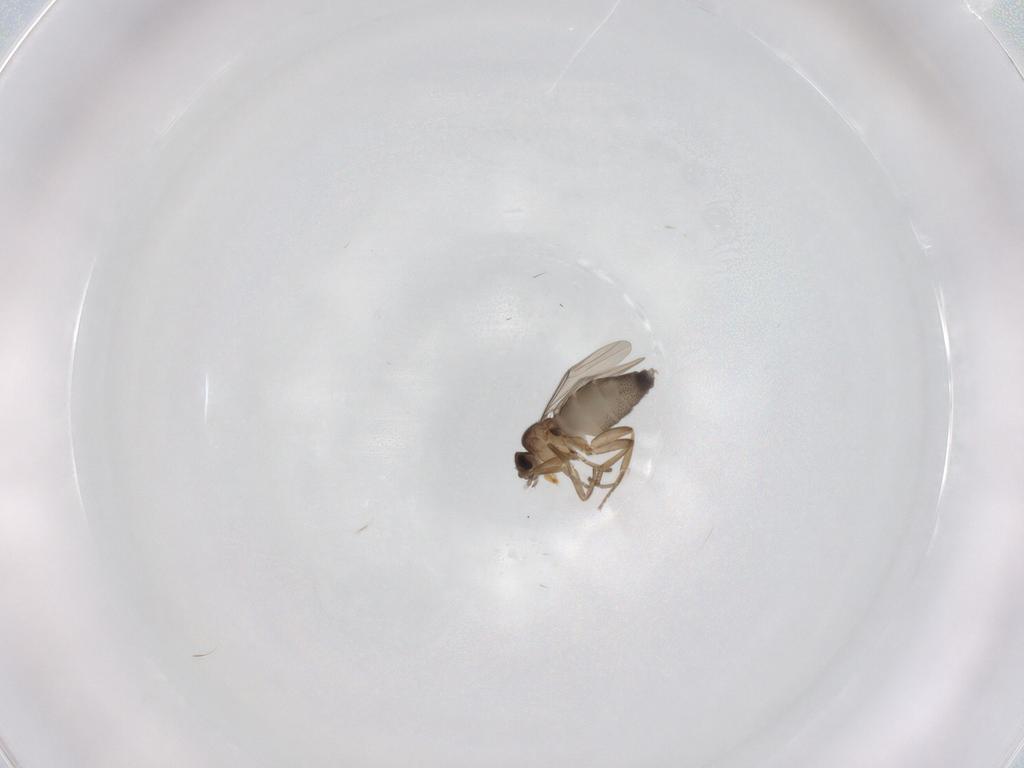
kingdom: Animalia
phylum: Arthropoda
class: Insecta
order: Diptera
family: Phoridae
